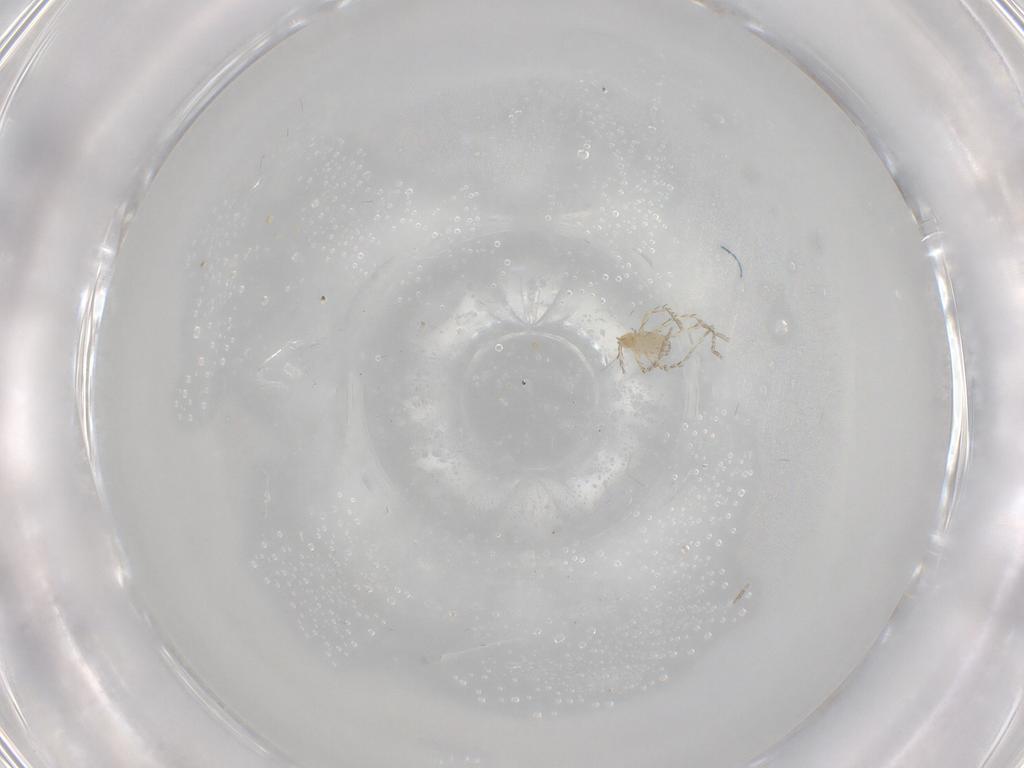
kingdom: Animalia
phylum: Arthropoda
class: Arachnida
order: Trombidiformes
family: Erythraeidae
